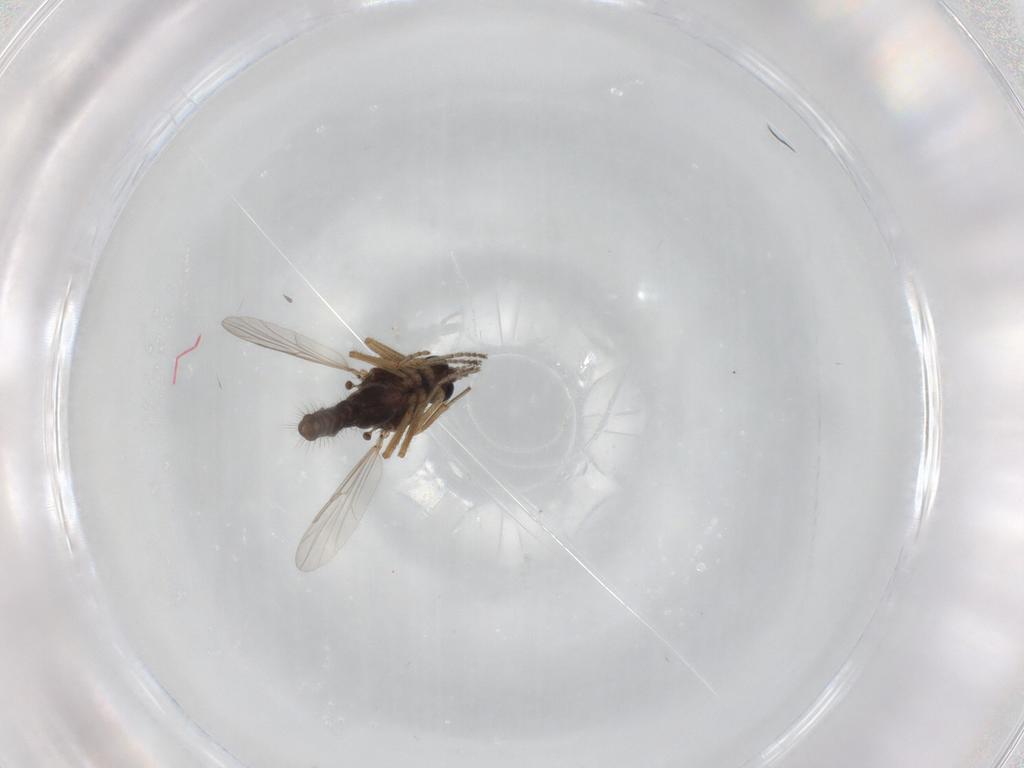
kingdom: Animalia
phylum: Arthropoda
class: Insecta
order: Diptera
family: Ceratopogonidae
